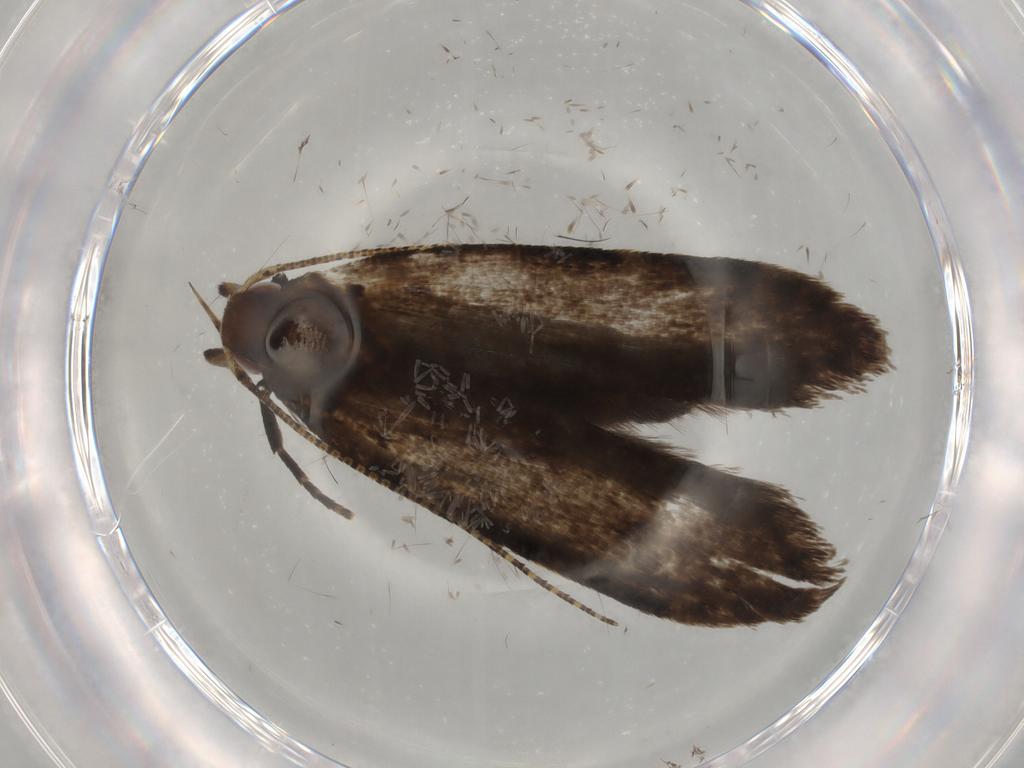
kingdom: Animalia
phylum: Arthropoda
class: Insecta
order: Lepidoptera
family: Gelechiidae
